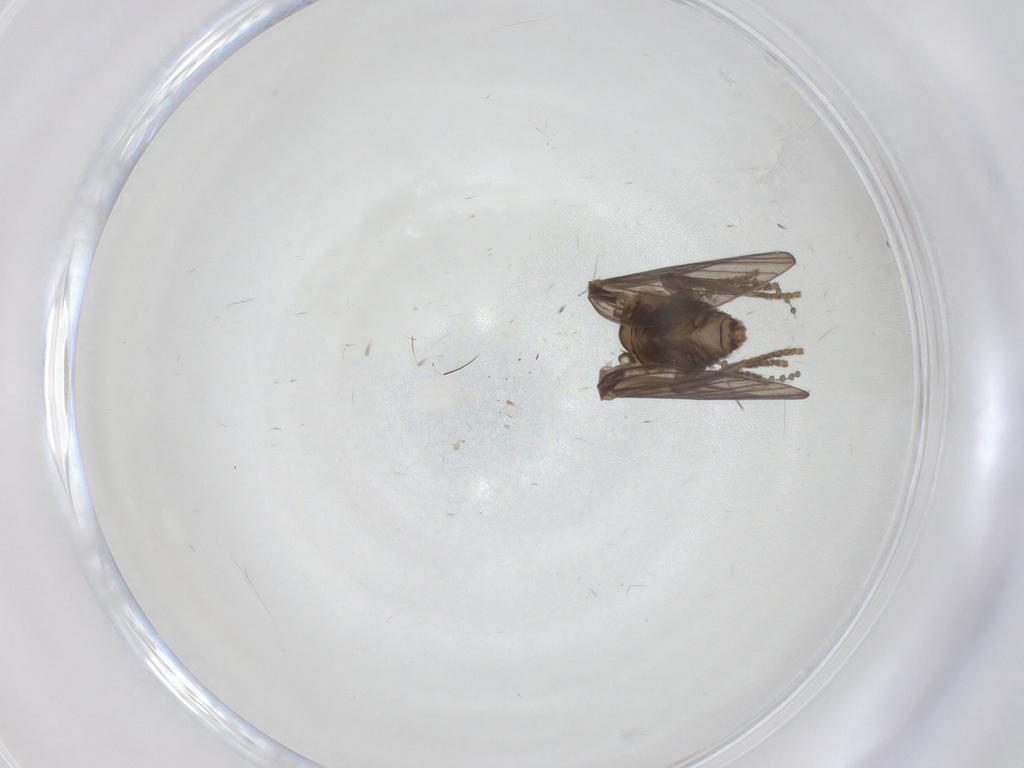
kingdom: Animalia
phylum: Arthropoda
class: Insecta
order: Diptera
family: Psychodidae
